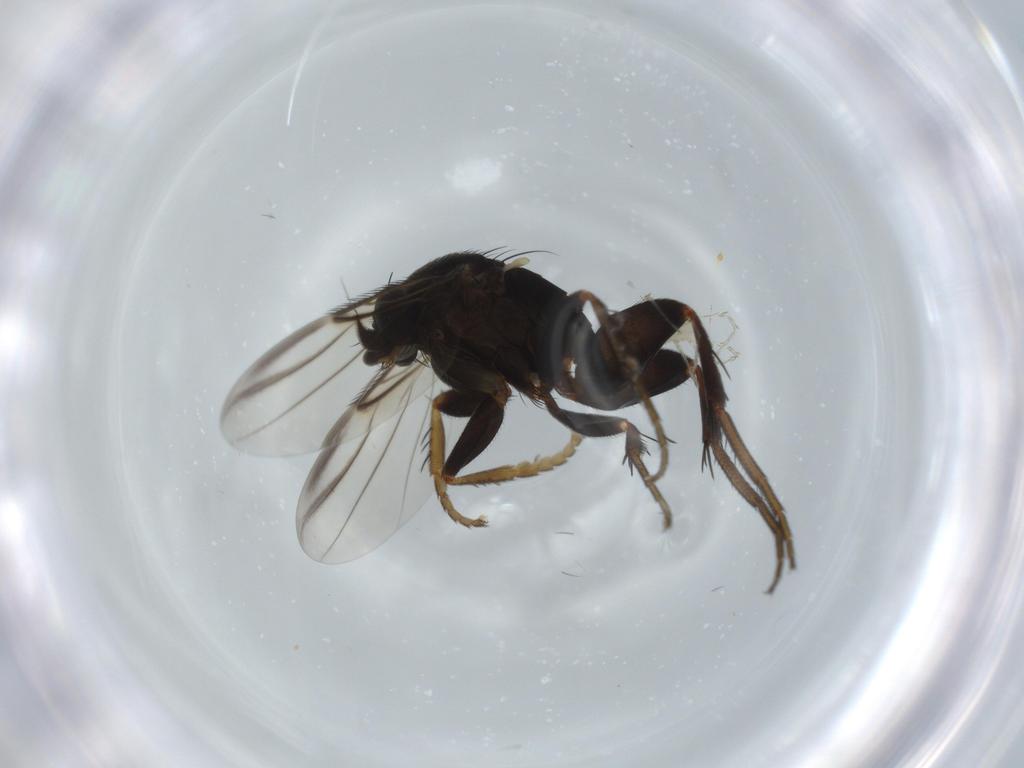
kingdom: Animalia
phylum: Arthropoda
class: Insecta
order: Diptera
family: Phoridae
